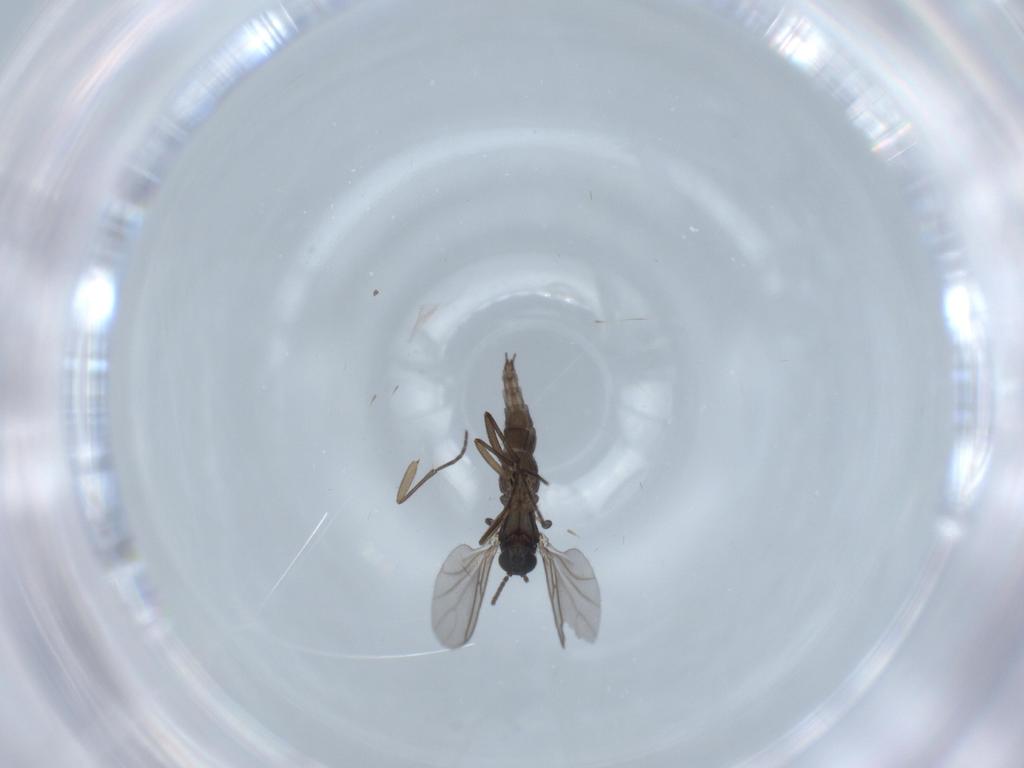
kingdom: Animalia
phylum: Arthropoda
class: Insecta
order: Diptera
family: Sciaridae
